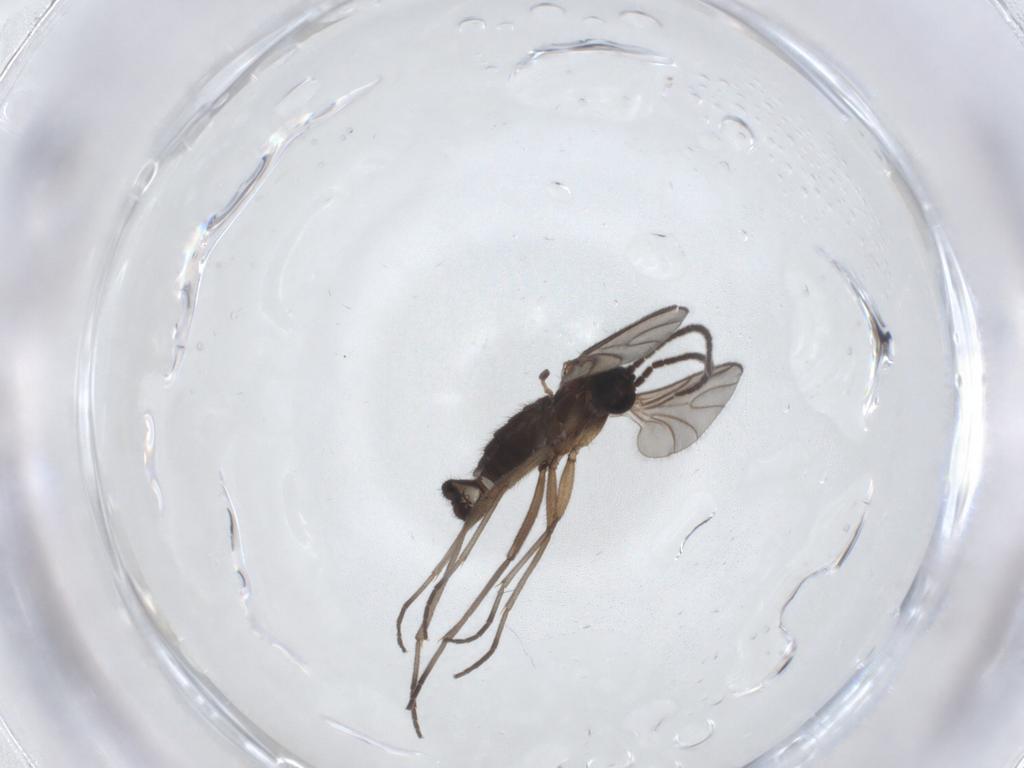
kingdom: Animalia
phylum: Arthropoda
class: Insecta
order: Diptera
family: Sciaridae
